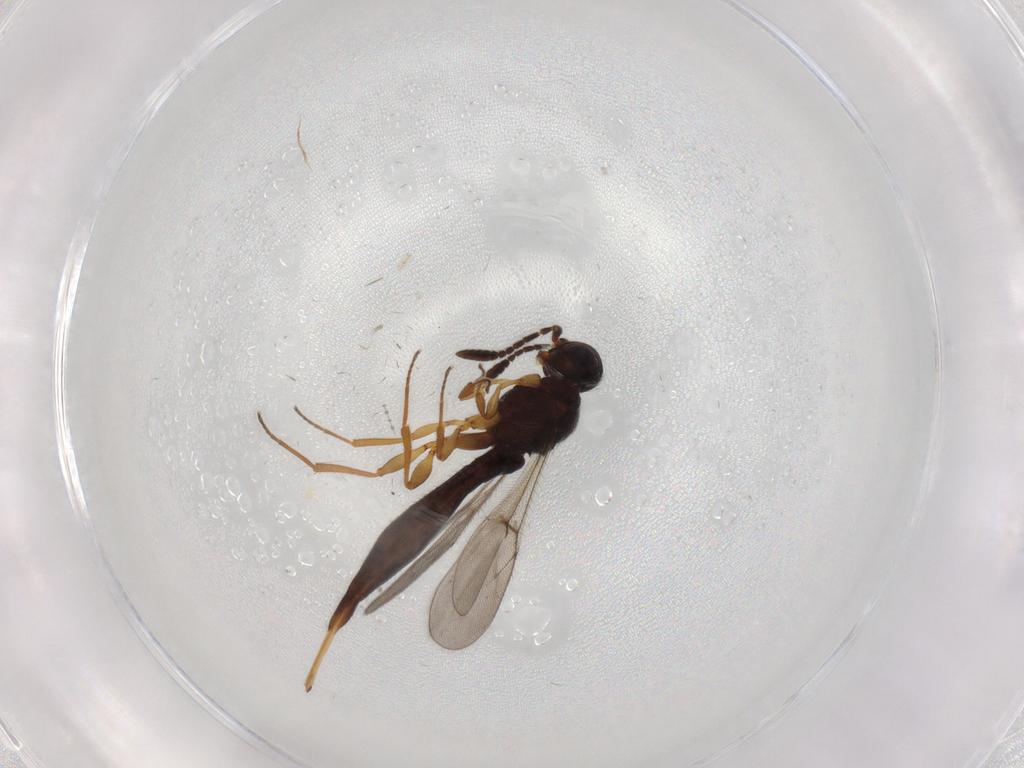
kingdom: Animalia
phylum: Arthropoda
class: Insecta
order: Hymenoptera
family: Scelionidae
